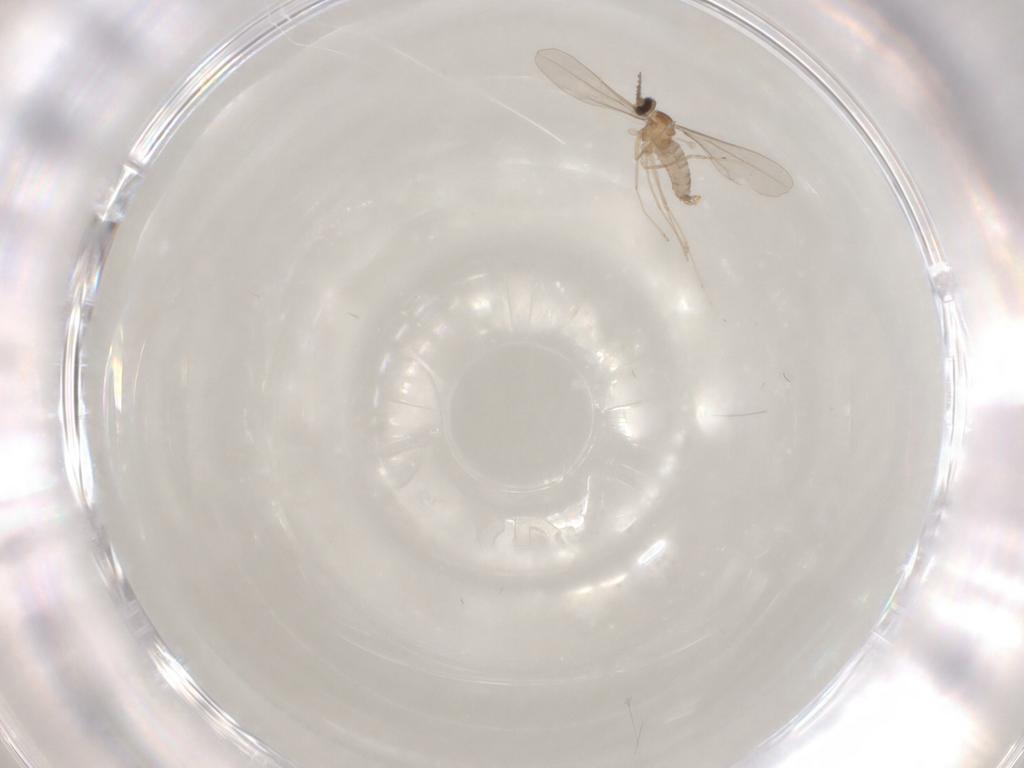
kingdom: Animalia
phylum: Arthropoda
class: Insecta
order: Diptera
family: Cecidomyiidae
